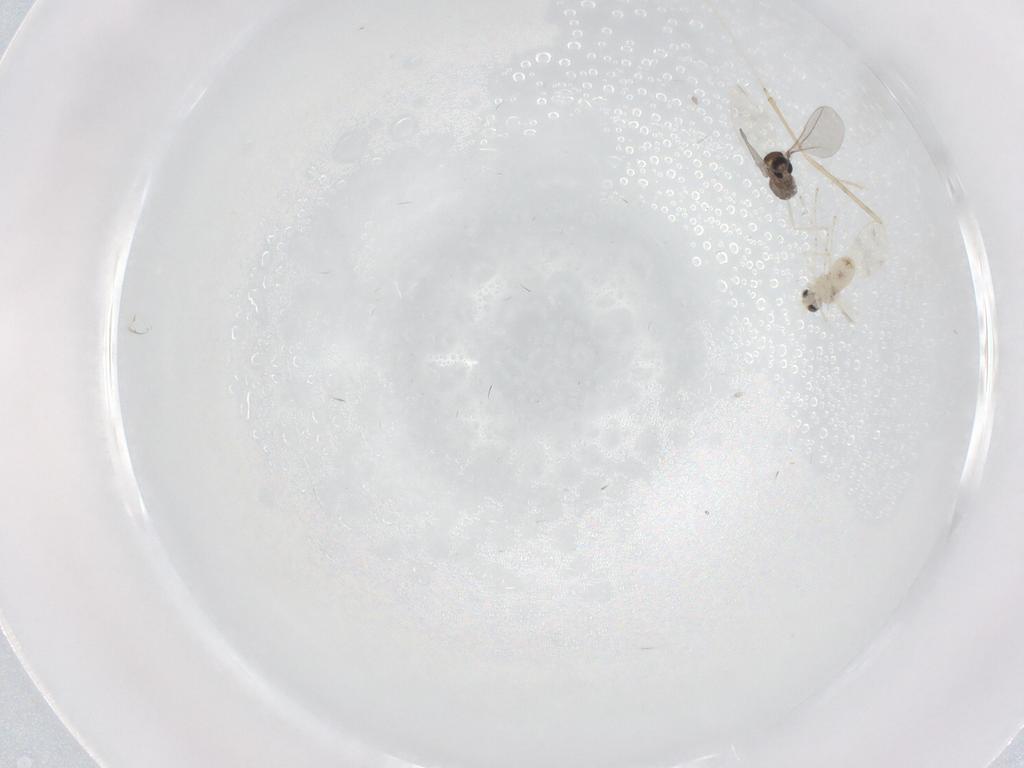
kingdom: Animalia
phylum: Arthropoda
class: Insecta
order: Diptera
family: Cecidomyiidae
